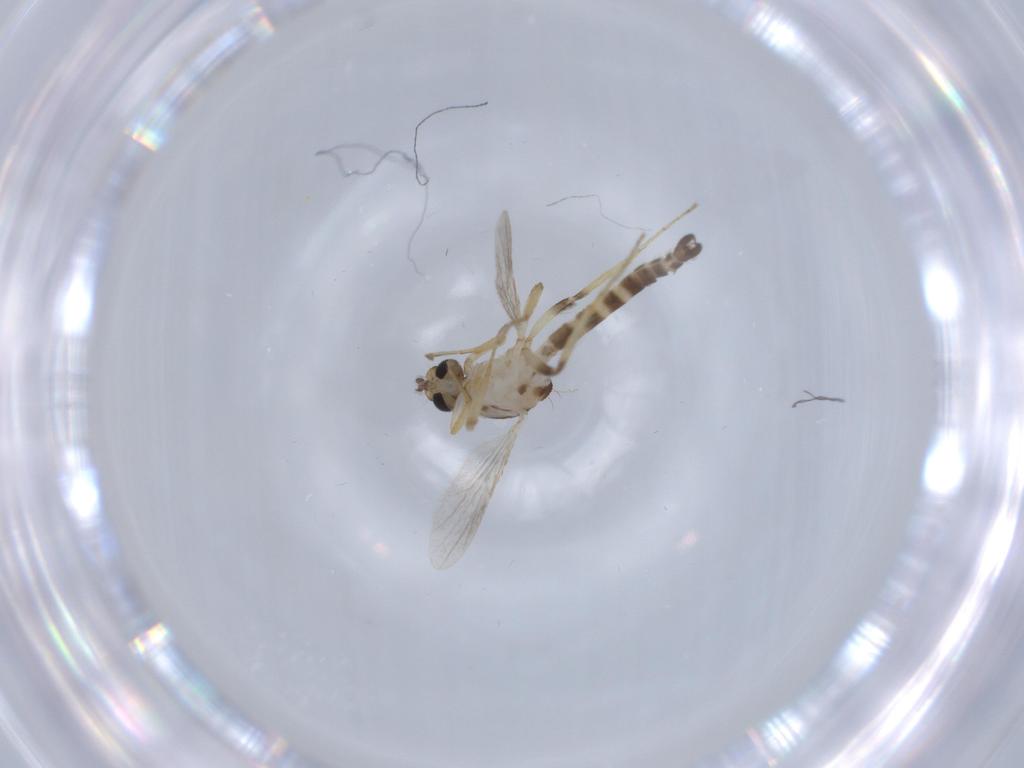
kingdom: Animalia
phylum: Arthropoda
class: Insecta
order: Diptera
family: Ceratopogonidae
